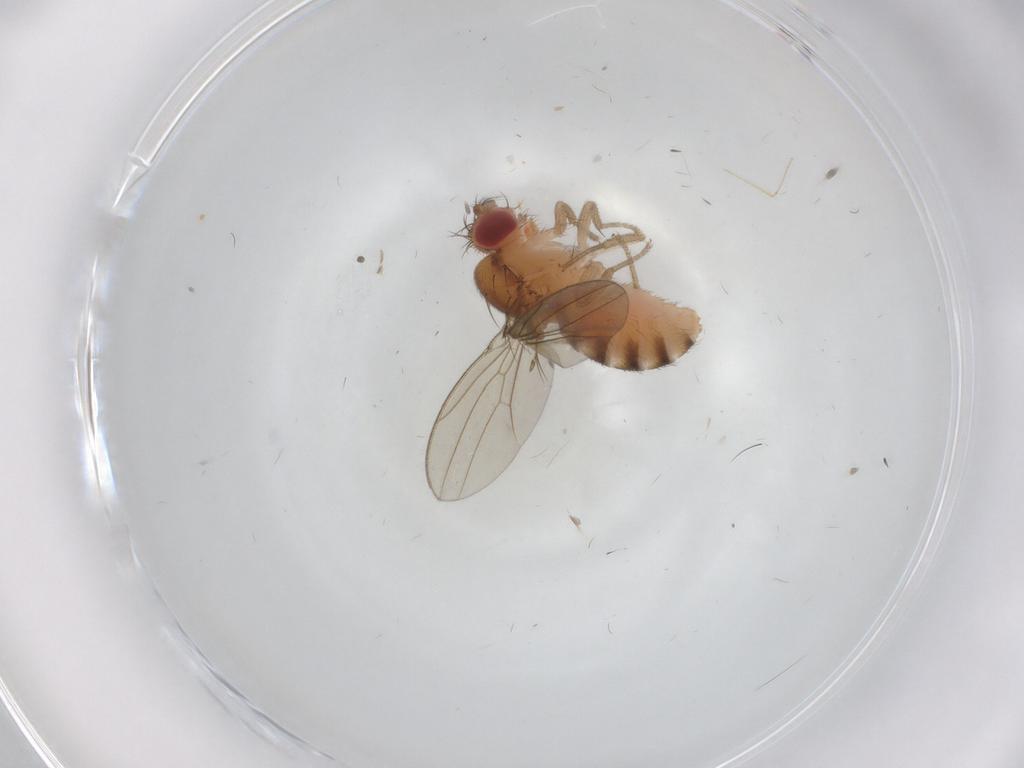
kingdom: Animalia
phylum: Arthropoda
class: Insecta
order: Diptera
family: Drosophilidae
